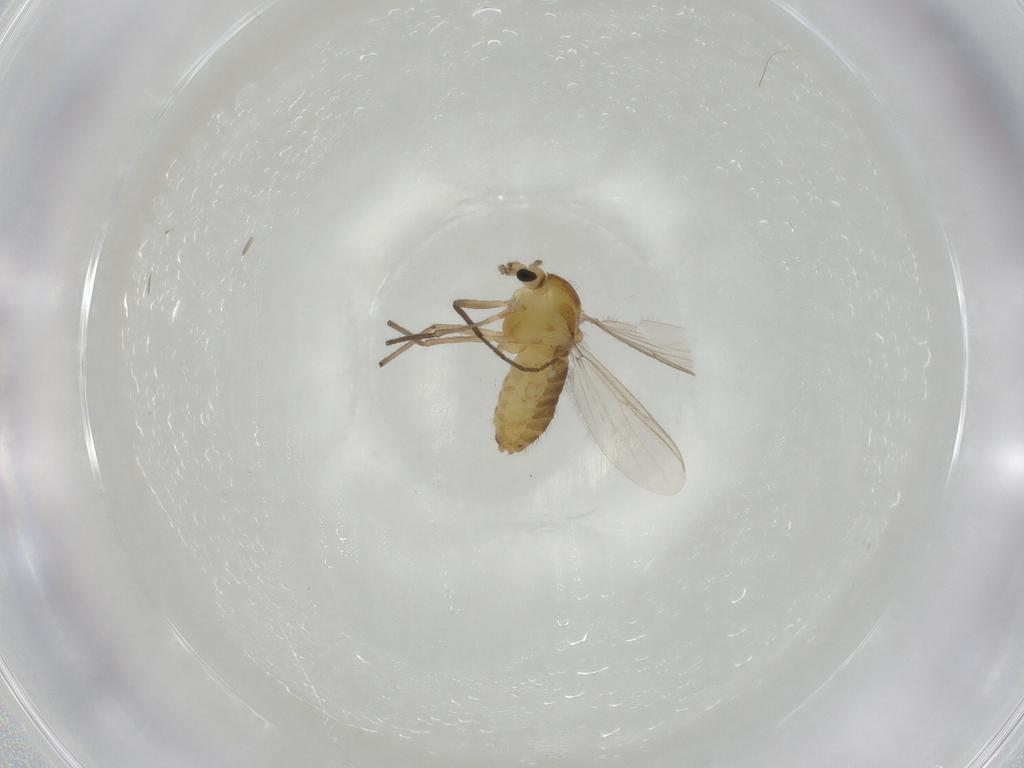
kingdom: Animalia
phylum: Arthropoda
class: Insecta
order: Diptera
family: Chironomidae
